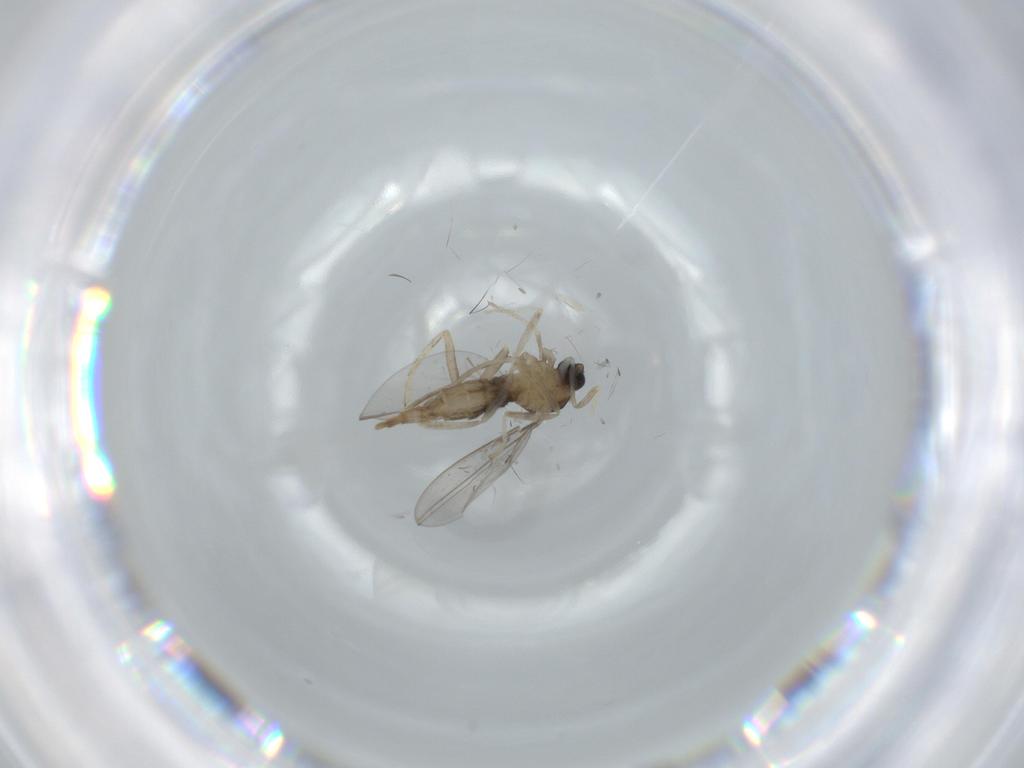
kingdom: Animalia
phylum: Arthropoda
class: Insecta
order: Diptera
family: Cecidomyiidae
